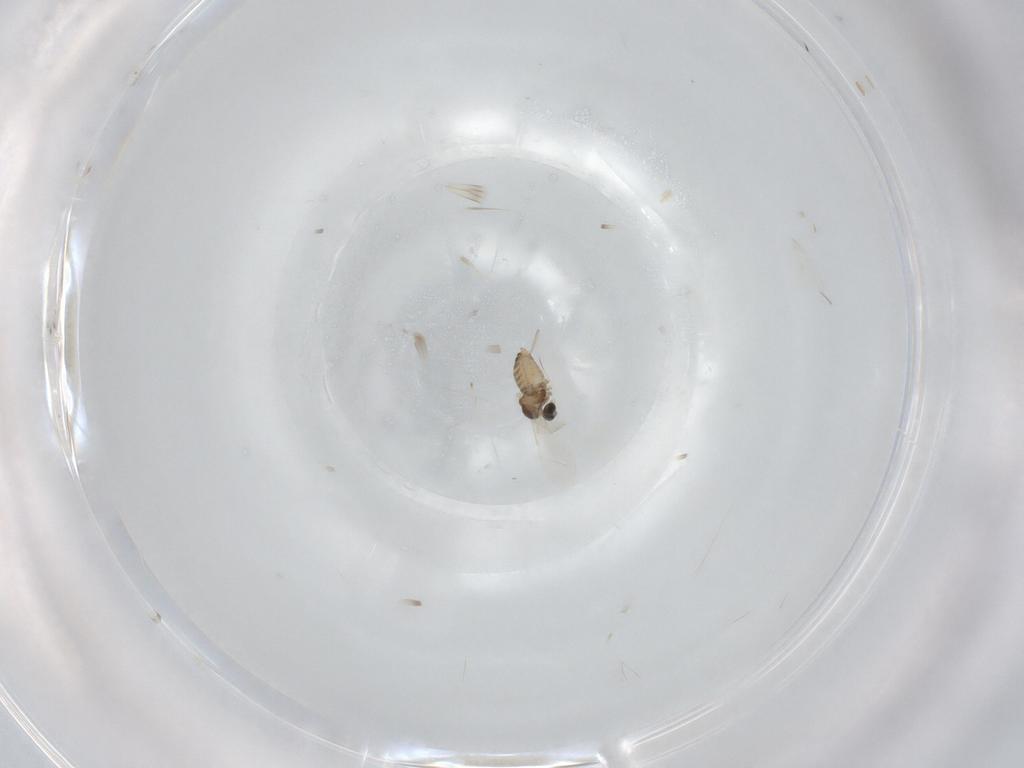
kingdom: Animalia
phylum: Arthropoda
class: Insecta
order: Diptera
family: Cecidomyiidae
